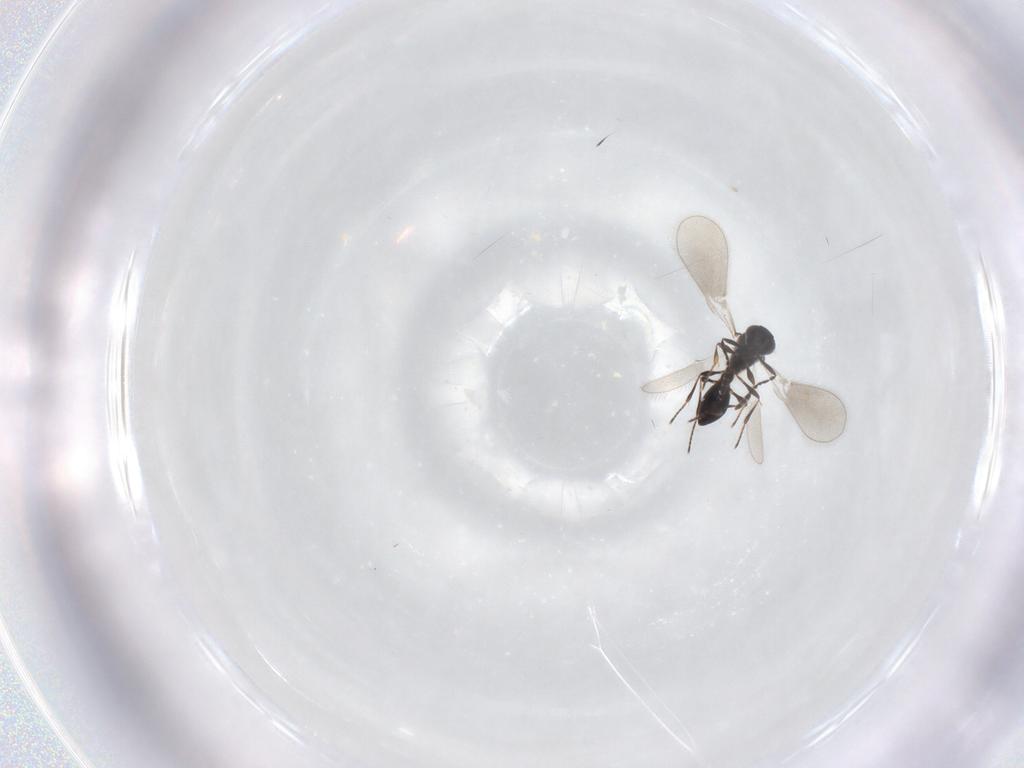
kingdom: Animalia
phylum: Arthropoda
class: Insecta
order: Hymenoptera
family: Platygastridae
